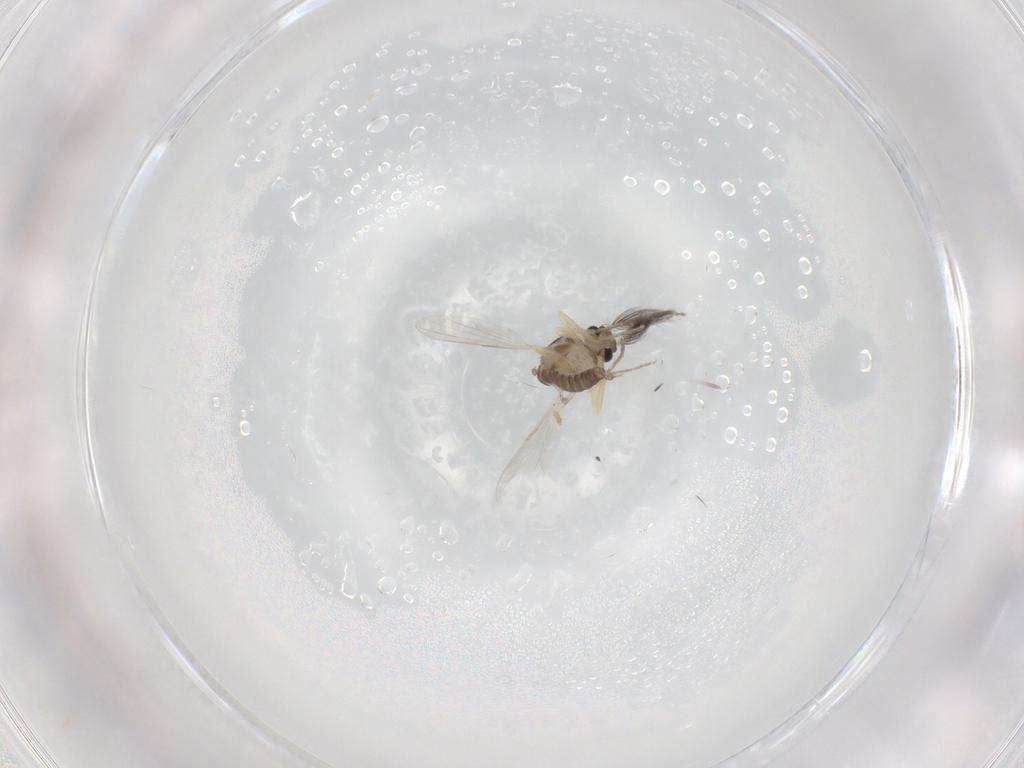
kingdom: Animalia
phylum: Arthropoda
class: Insecta
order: Diptera
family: Ceratopogonidae
